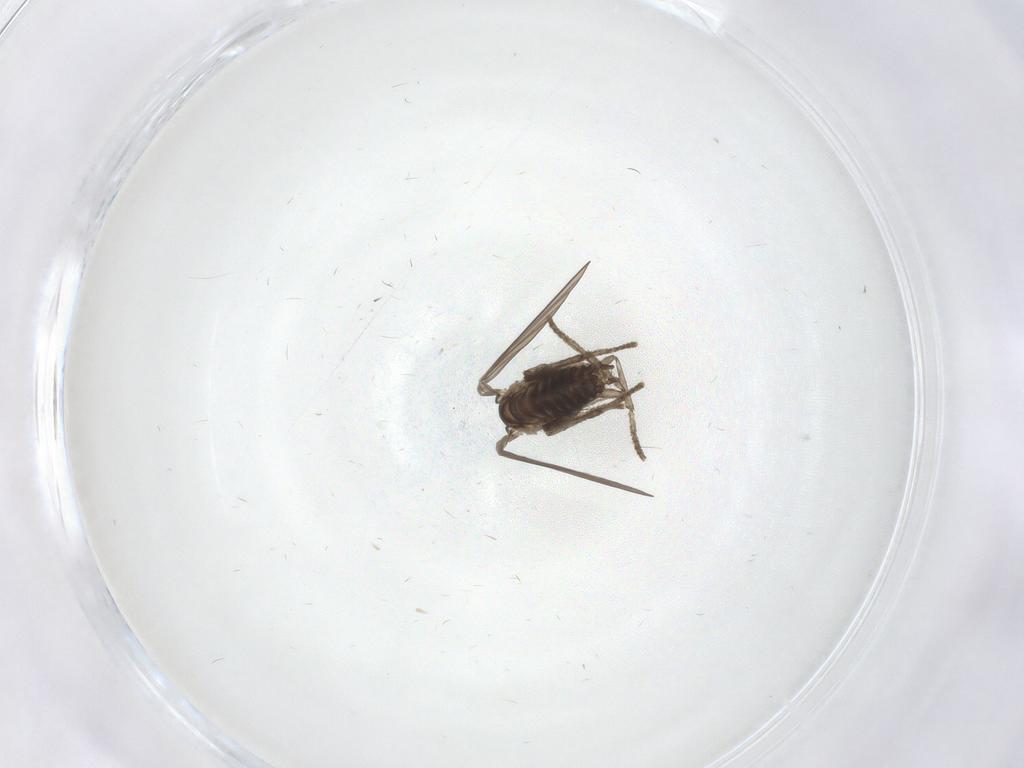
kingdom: Animalia
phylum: Arthropoda
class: Insecta
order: Diptera
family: Psychodidae
